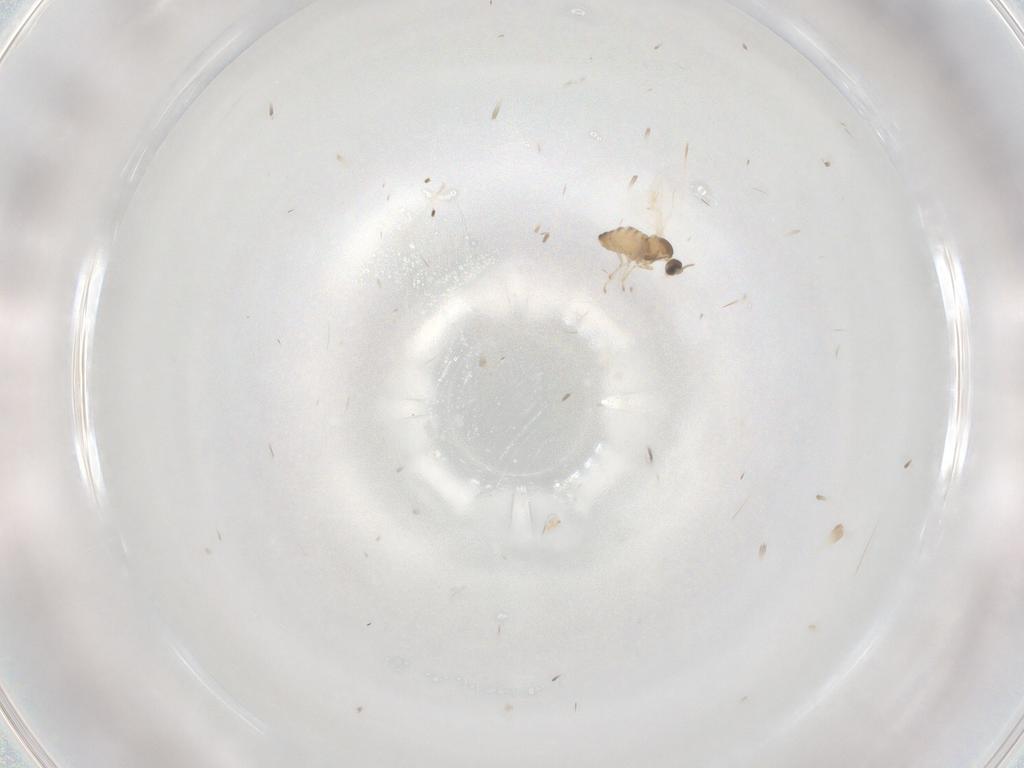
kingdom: Animalia
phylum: Arthropoda
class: Insecta
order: Diptera
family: Cecidomyiidae
